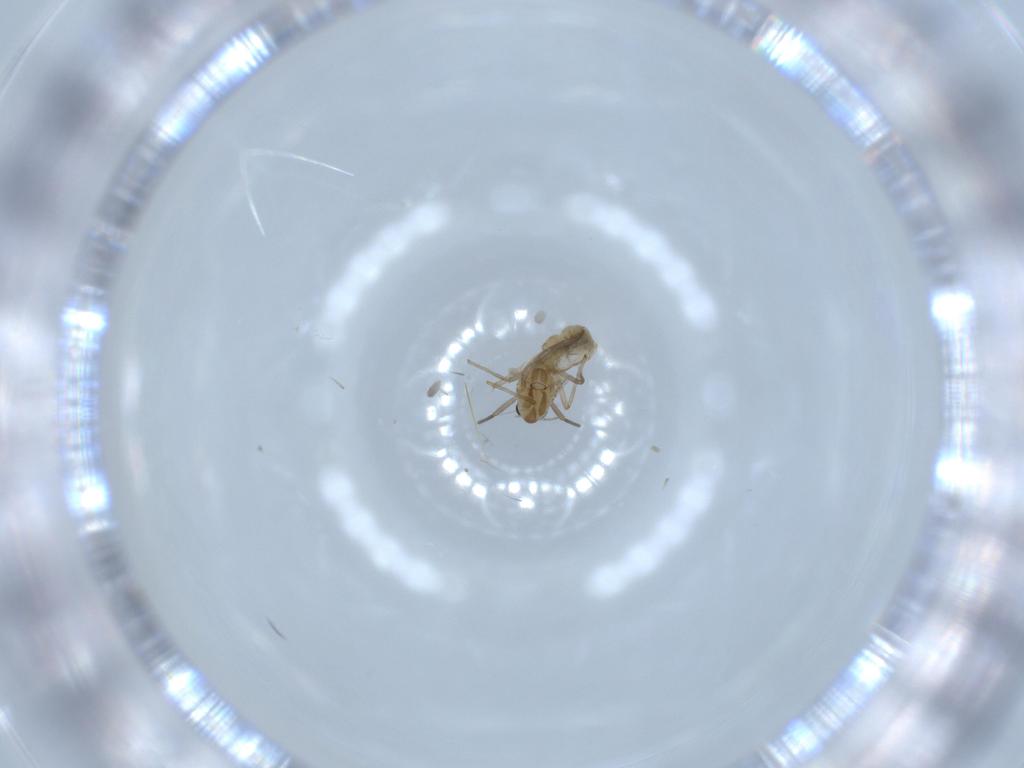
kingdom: Animalia
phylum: Arthropoda
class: Insecta
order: Diptera
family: Chironomidae
